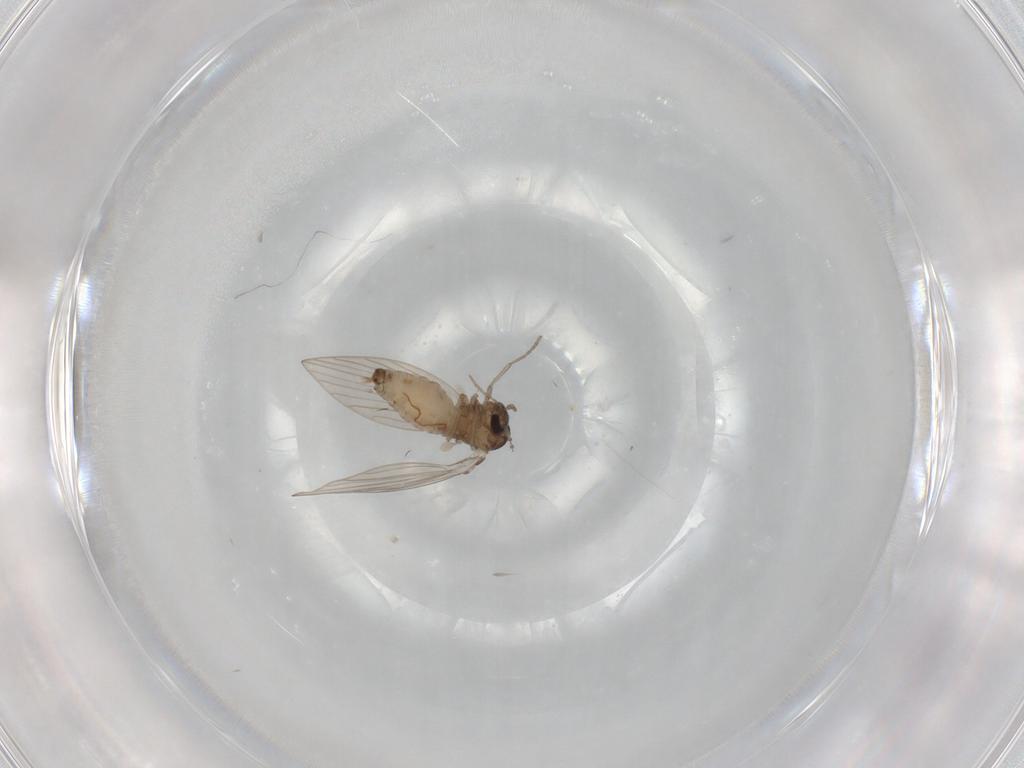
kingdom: Animalia
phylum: Arthropoda
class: Insecta
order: Diptera
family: Psychodidae
